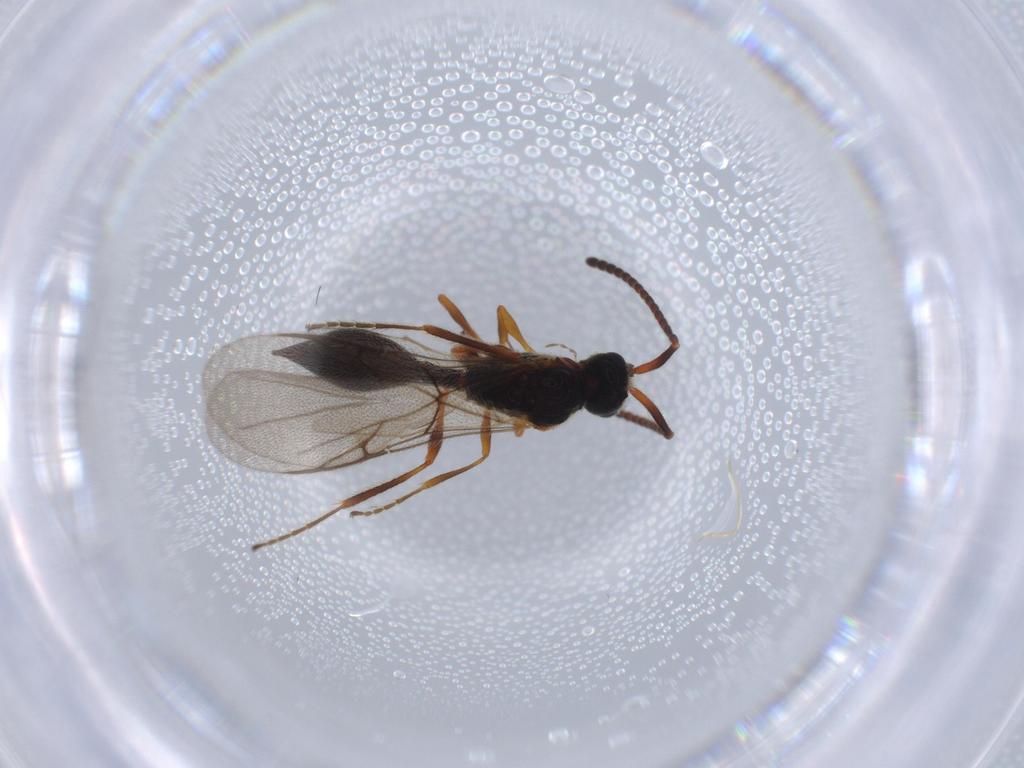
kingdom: Animalia
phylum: Arthropoda
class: Insecta
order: Hymenoptera
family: Diapriidae
